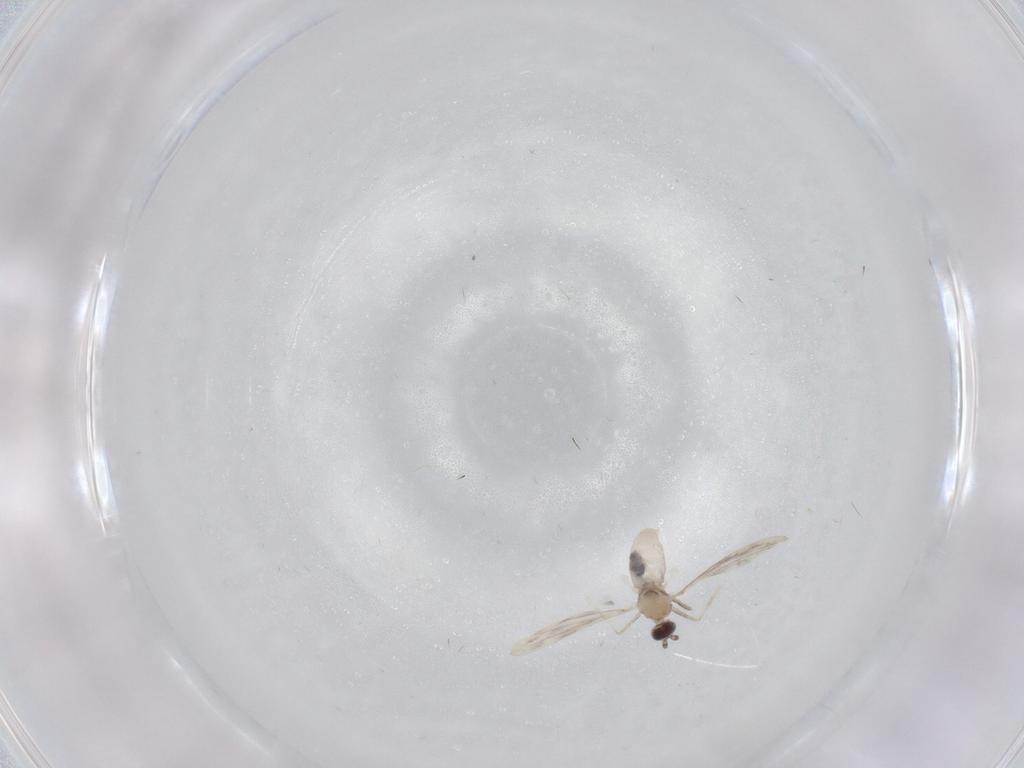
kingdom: Animalia
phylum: Arthropoda
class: Insecta
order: Diptera
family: Cecidomyiidae
